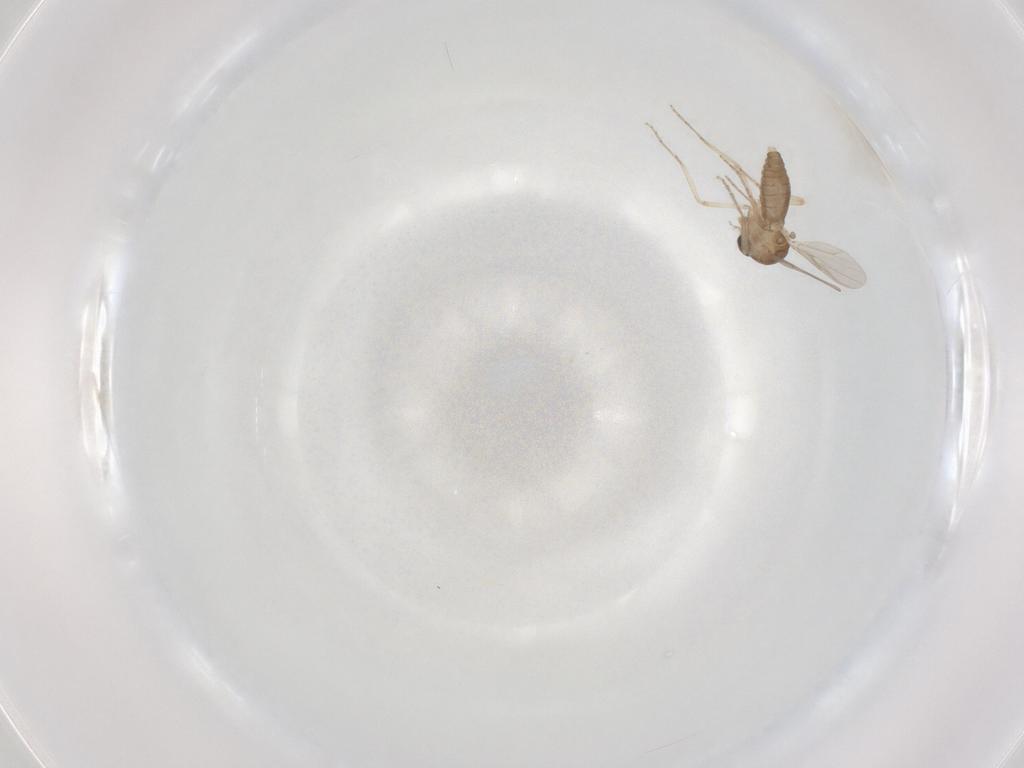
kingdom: Animalia
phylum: Arthropoda
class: Insecta
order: Diptera
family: Ceratopogonidae
